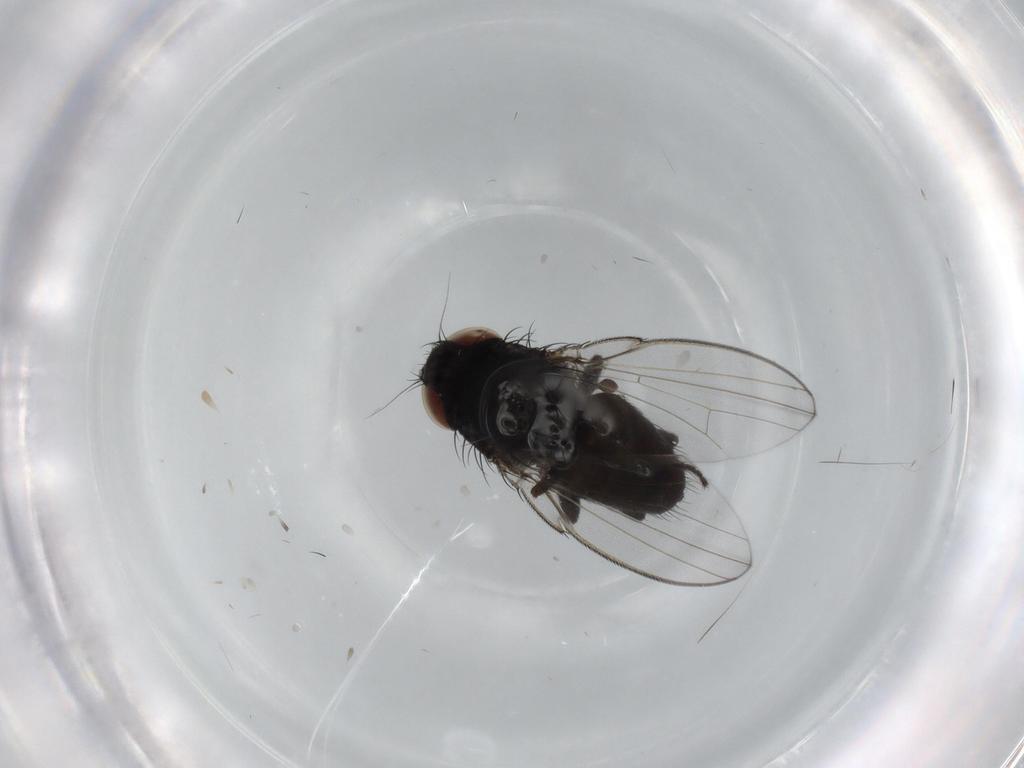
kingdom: Animalia
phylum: Arthropoda
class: Insecta
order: Diptera
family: Milichiidae
